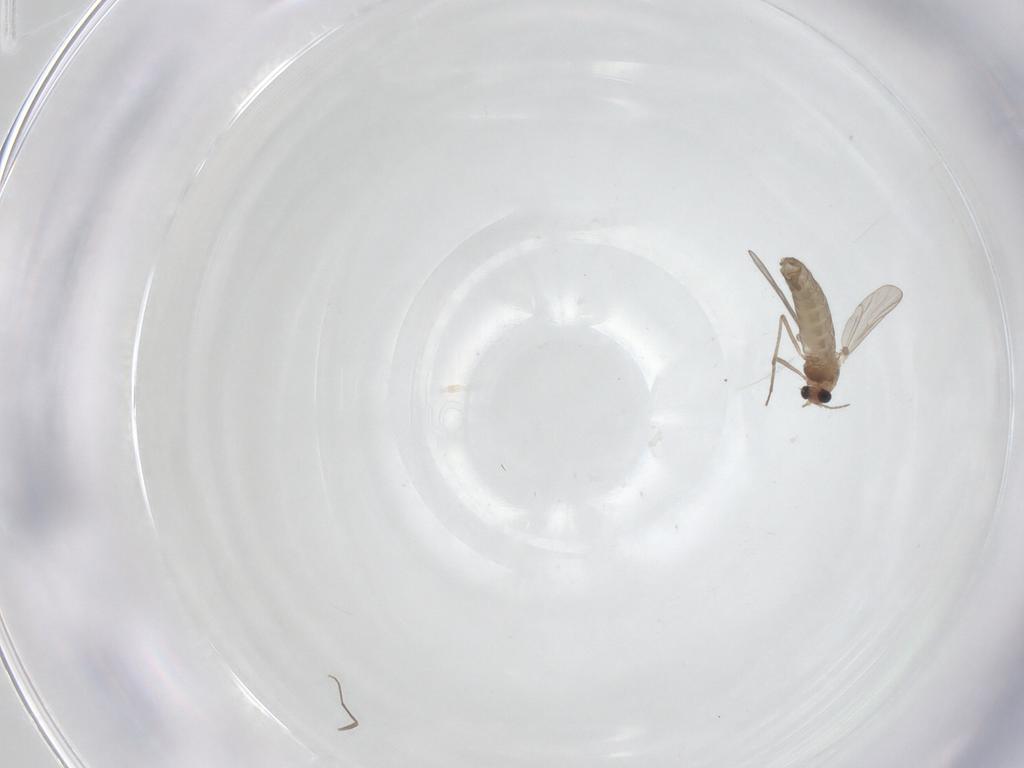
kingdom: Animalia
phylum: Arthropoda
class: Insecta
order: Diptera
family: Chironomidae
